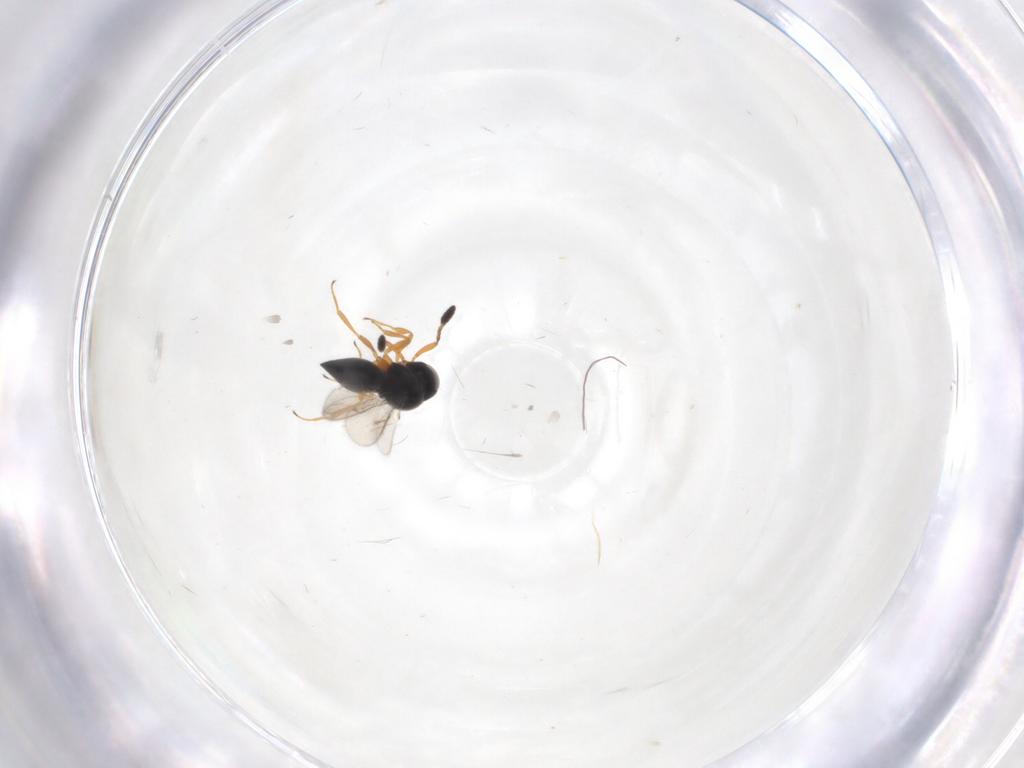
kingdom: Animalia
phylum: Arthropoda
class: Insecta
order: Hymenoptera
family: Scelionidae
